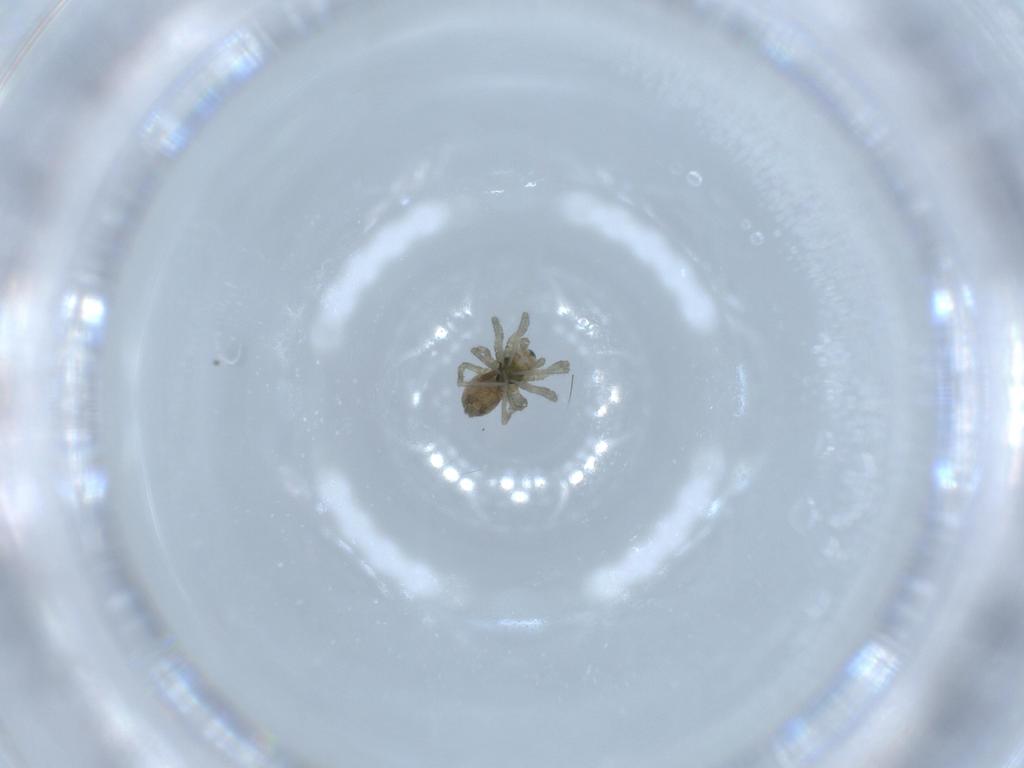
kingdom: Animalia
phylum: Arthropoda
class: Arachnida
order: Araneae
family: Linyphiidae
